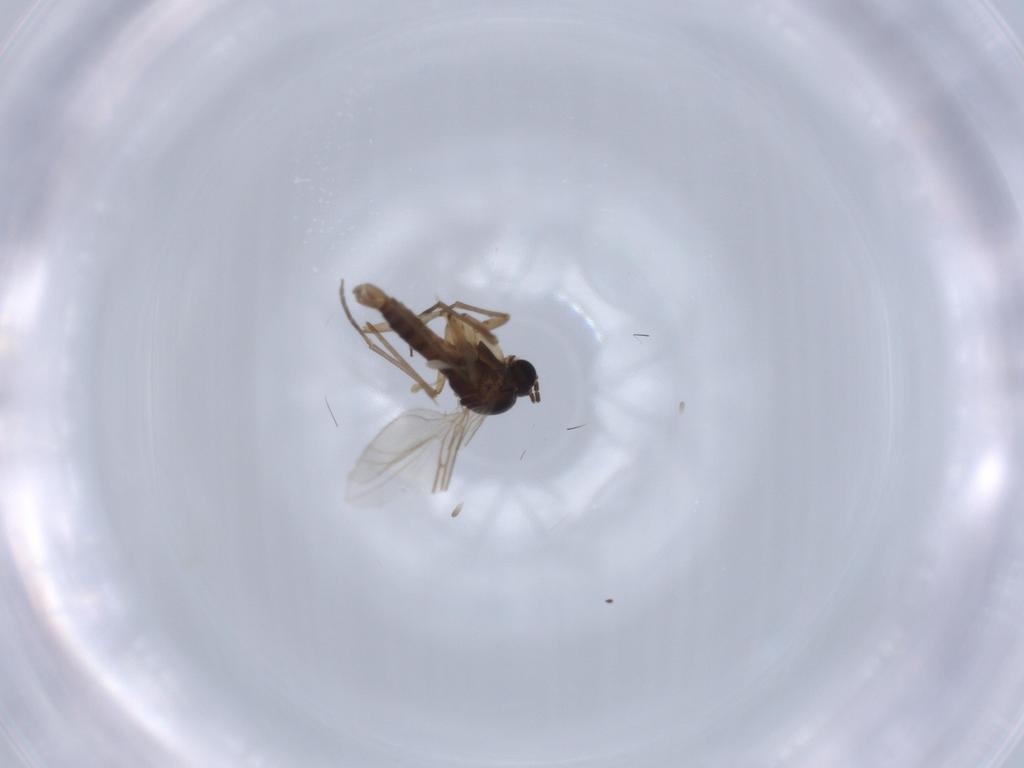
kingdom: Animalia
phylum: Arthropoda
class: Insecta
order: Diptera
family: Sciaridae
